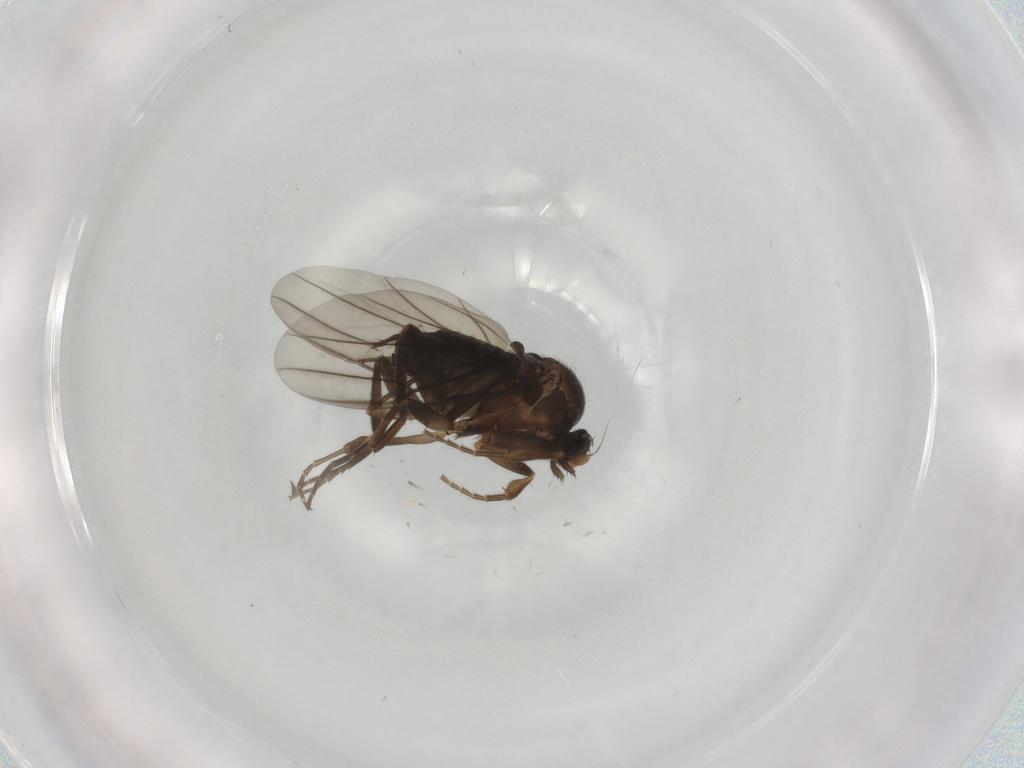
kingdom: Animalia
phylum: Arthropoda
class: Insecta
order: Diptera
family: Sciaridae
